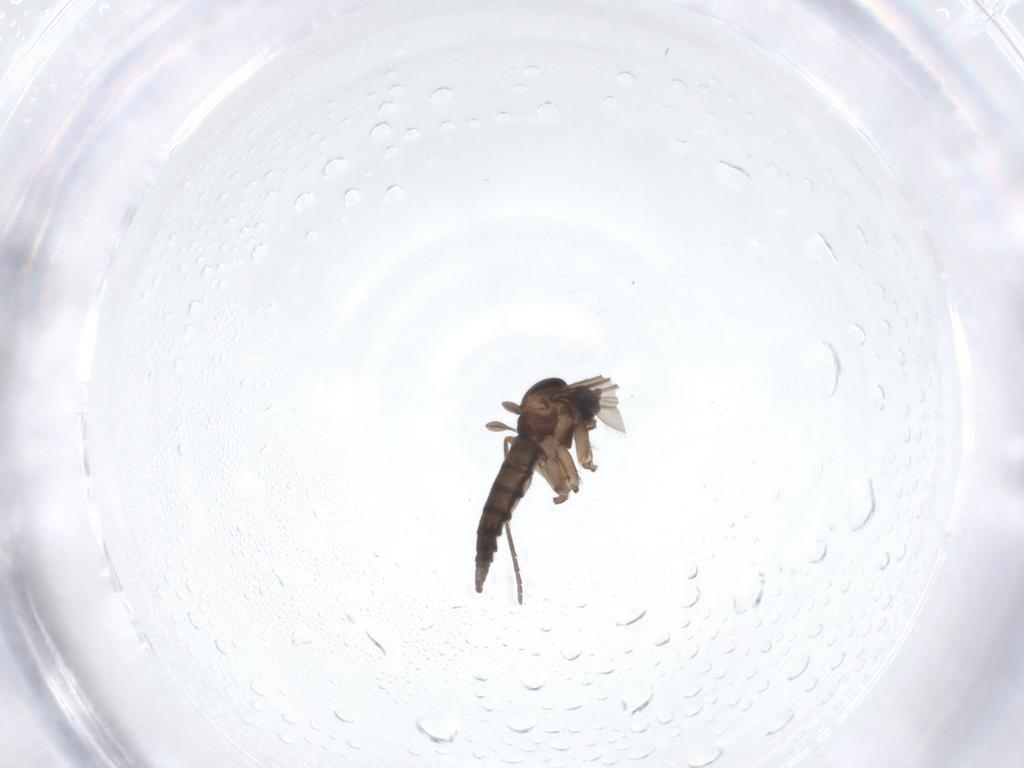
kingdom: Animalia
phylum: Arthropoda
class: Insecta
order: Diptera
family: Sciaridae
